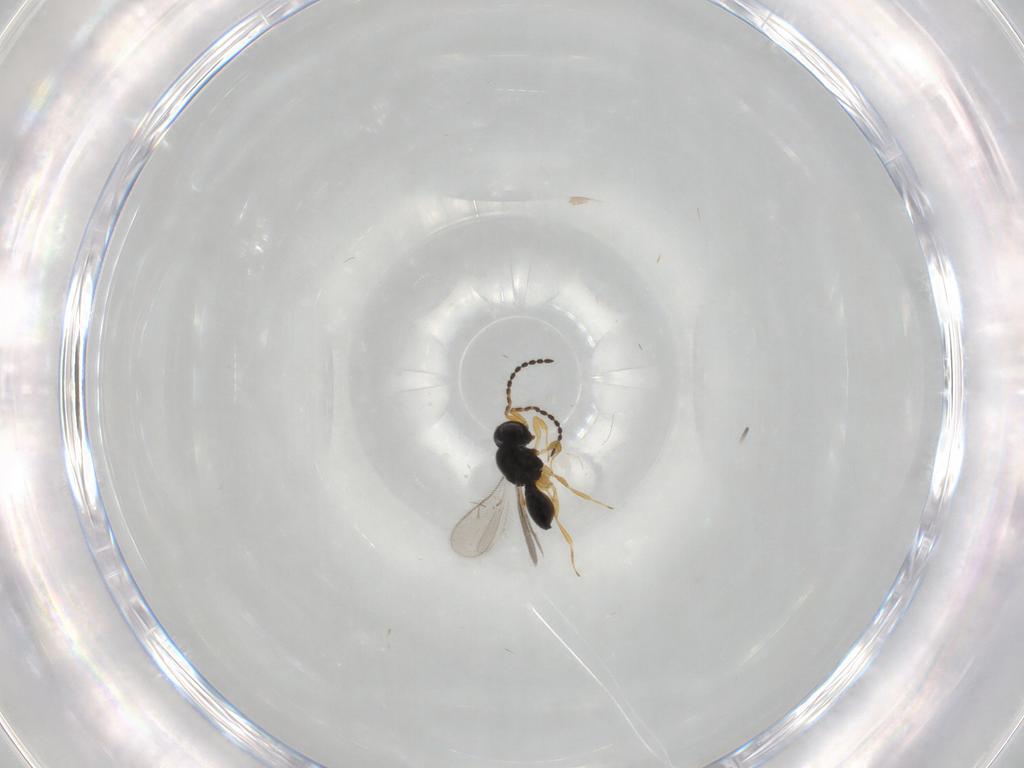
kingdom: Animalia
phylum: Arthropoda
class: Insecta
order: Hymenoptera
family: Scelionidae
